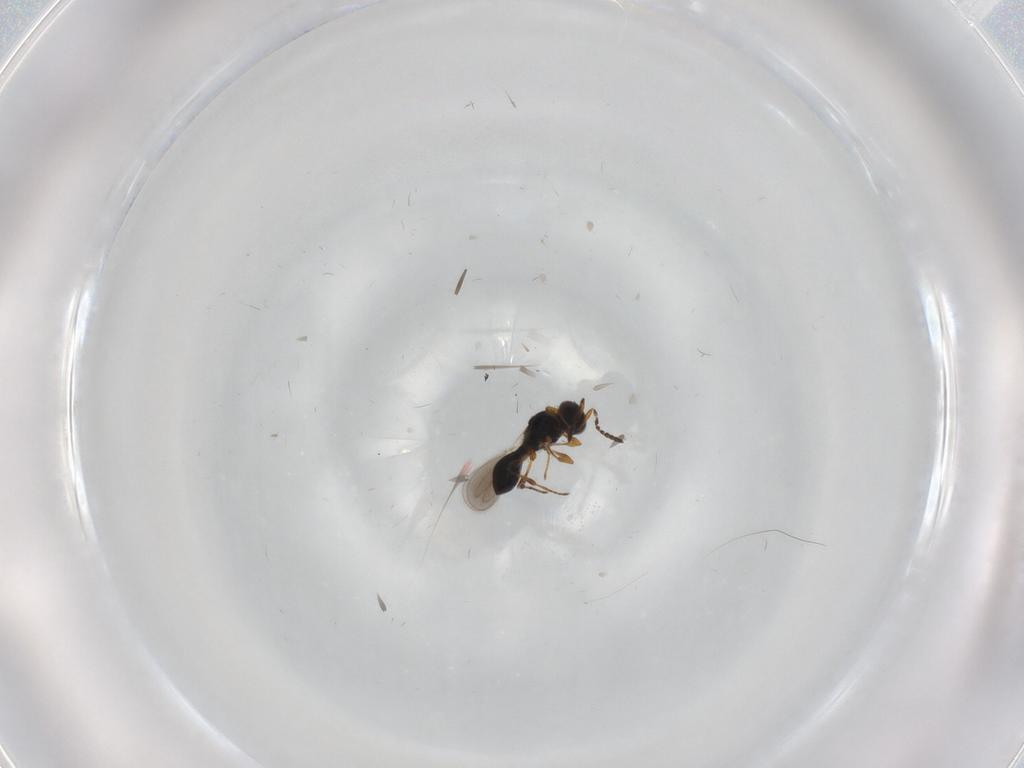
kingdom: Animalia
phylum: Arthropoda
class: Insecta
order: Hymenoptera
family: Platygastridae
